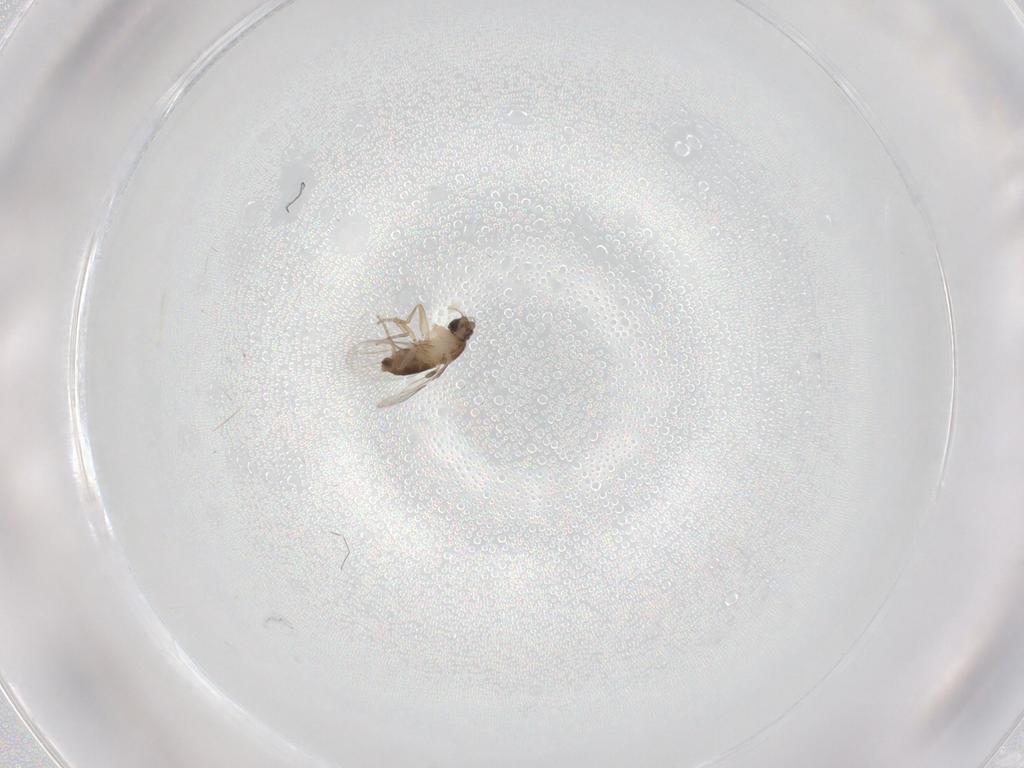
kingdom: Animalia
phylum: Arthropoda
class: Insecta
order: Diptera
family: Phoridae
